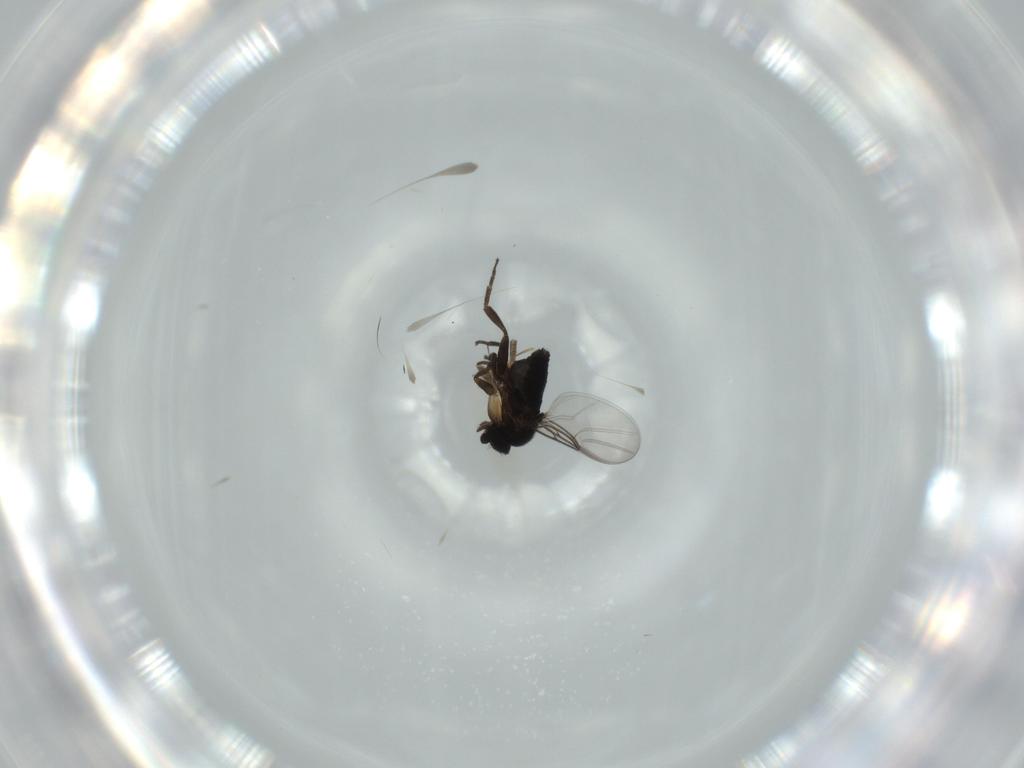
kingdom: Animalia
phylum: Arthropoda
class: Insecta
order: Diptera
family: Phoridae
